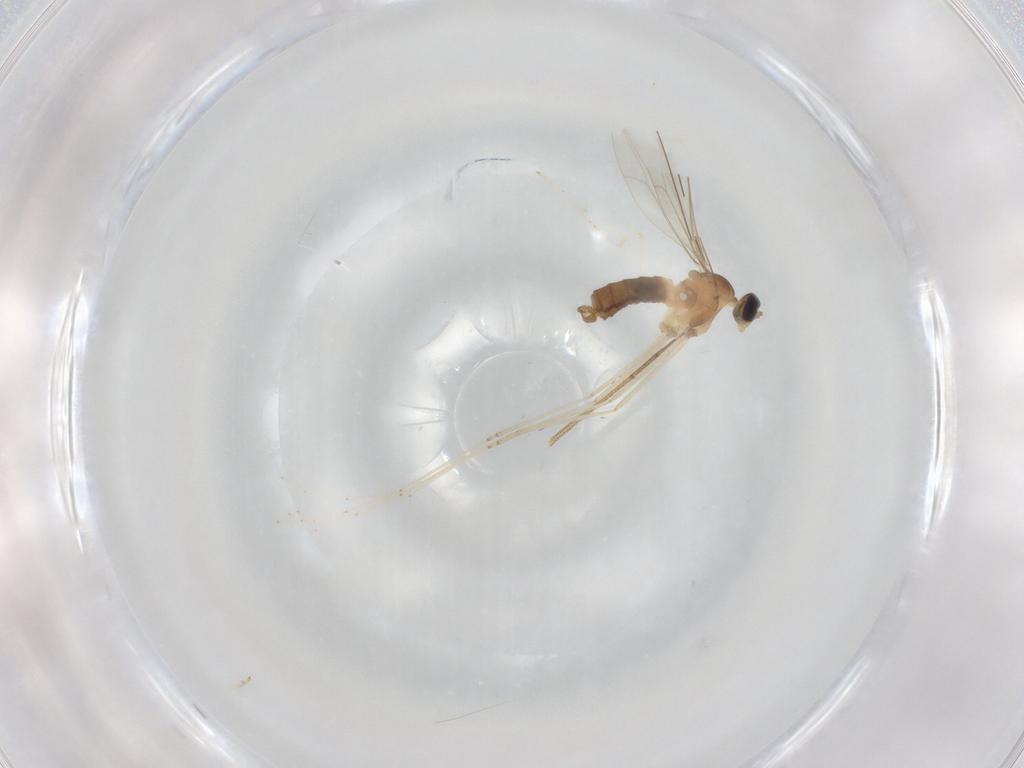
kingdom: Animalia
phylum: Arthropoda
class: Insecta
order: Diptera
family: Dolichopodidae
